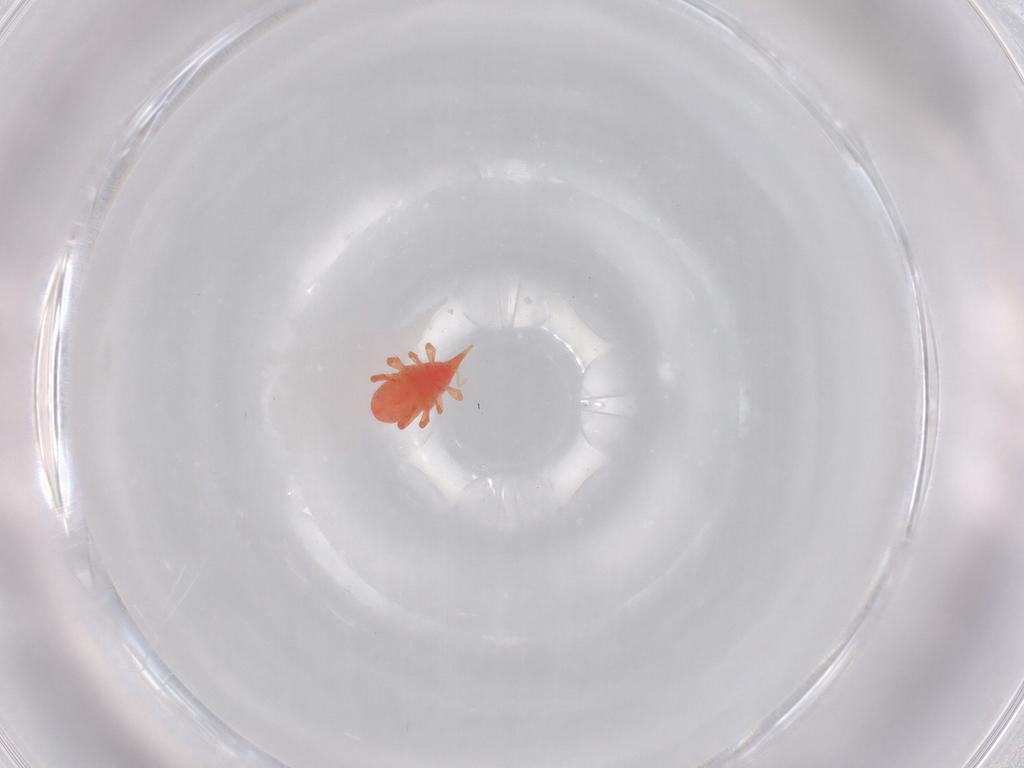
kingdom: Animalia
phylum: Arthropoda
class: Arachnida
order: Trombidiformes
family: Bdellidae
